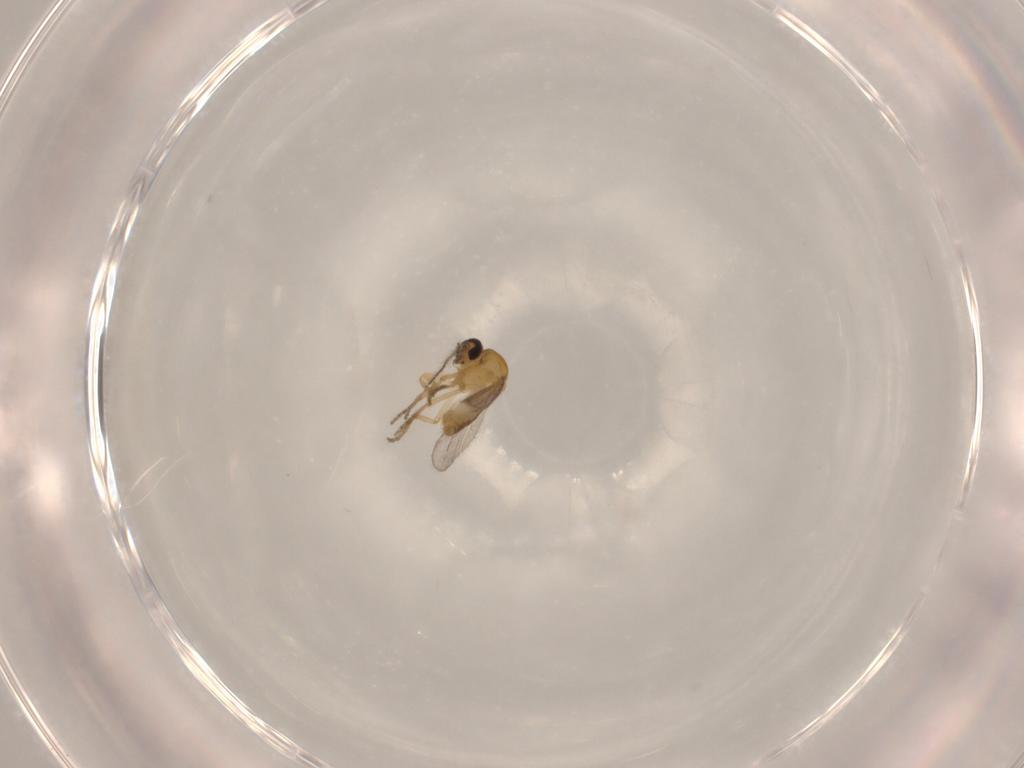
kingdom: Animalia
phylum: Arthropoda
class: Insecta
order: Diptera
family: Ceratopogonidae
